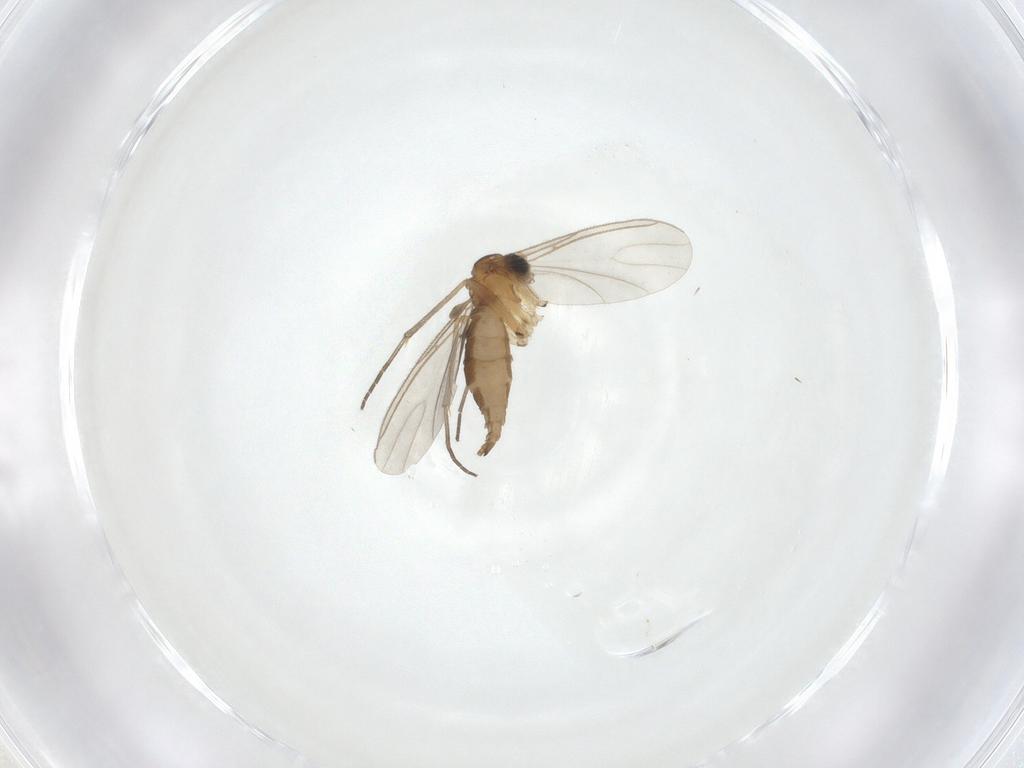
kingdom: Animalia
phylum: Arthropoda
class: Insecta
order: Diptera
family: Sciaridae
